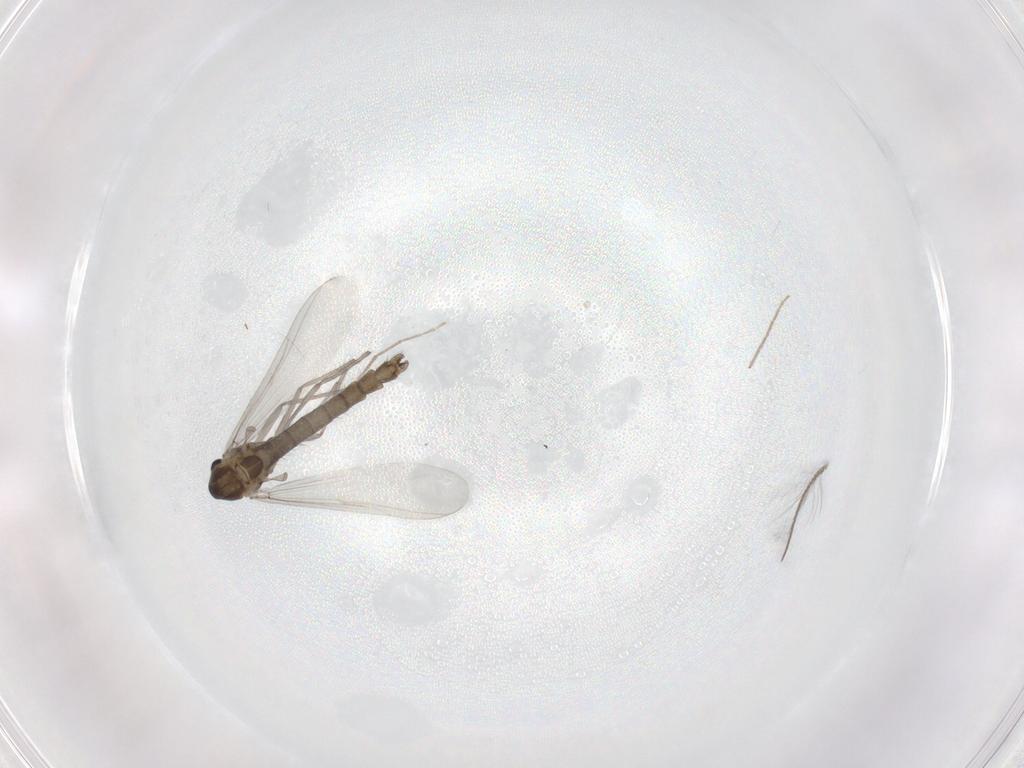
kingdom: Animalia
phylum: Arthropoda
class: Insecta
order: Diptera
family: Chironomidae
